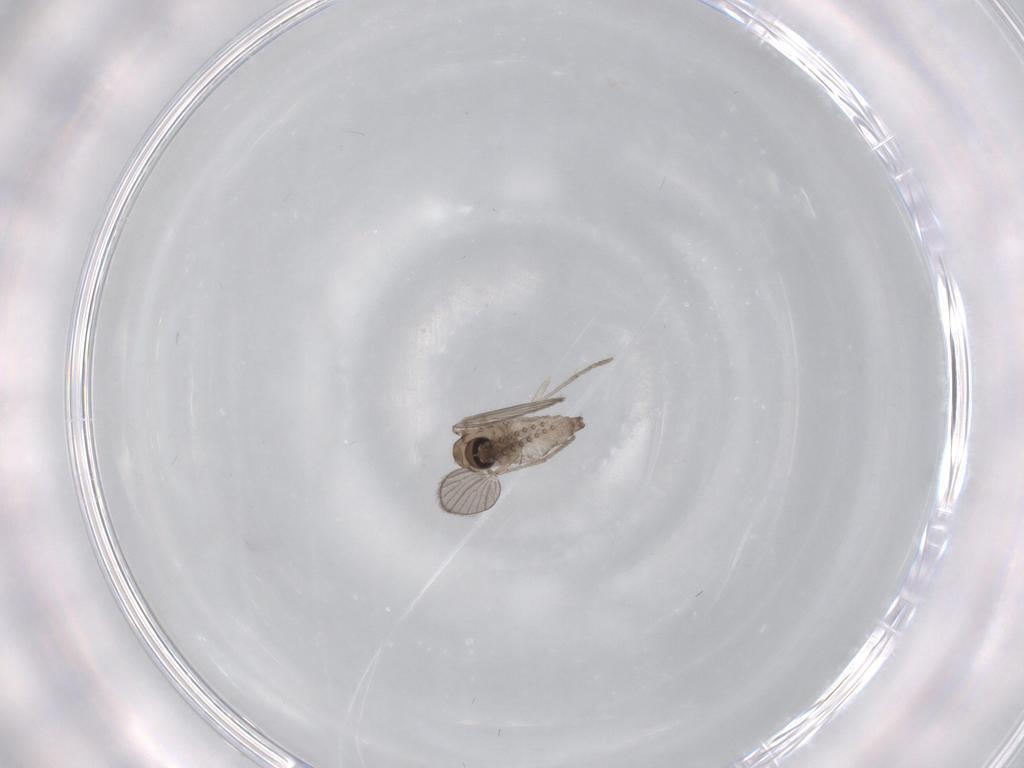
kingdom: Animalia
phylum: Arthropoda
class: Insecta
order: Diptera
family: Psychodidae
